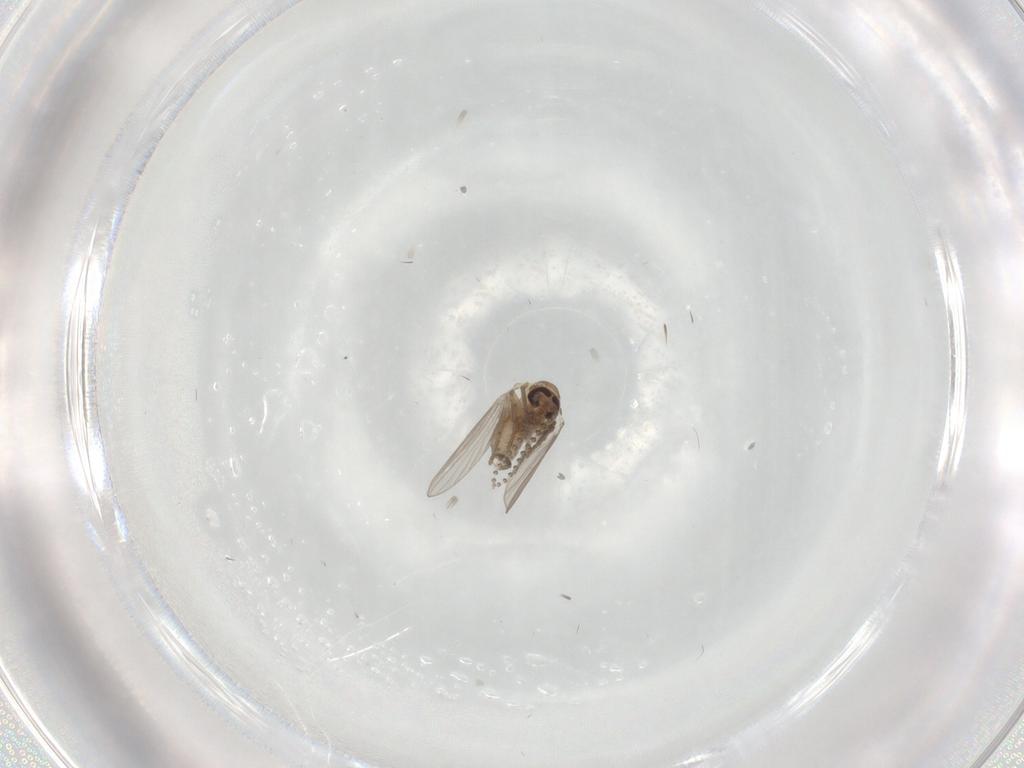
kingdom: Animalia
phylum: Arthropoda
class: Insecta
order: Diptera
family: Psychodidae
